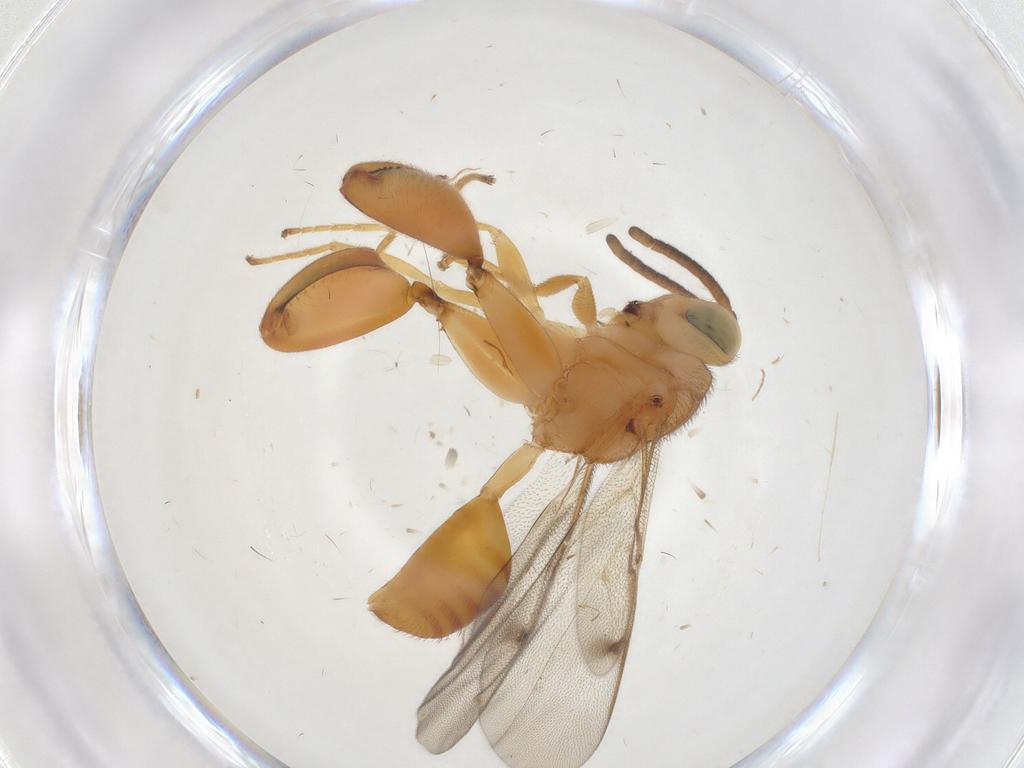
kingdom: Animalia
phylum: Arthropoda
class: Insecta
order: Hymenoptera
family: Chalcididae
